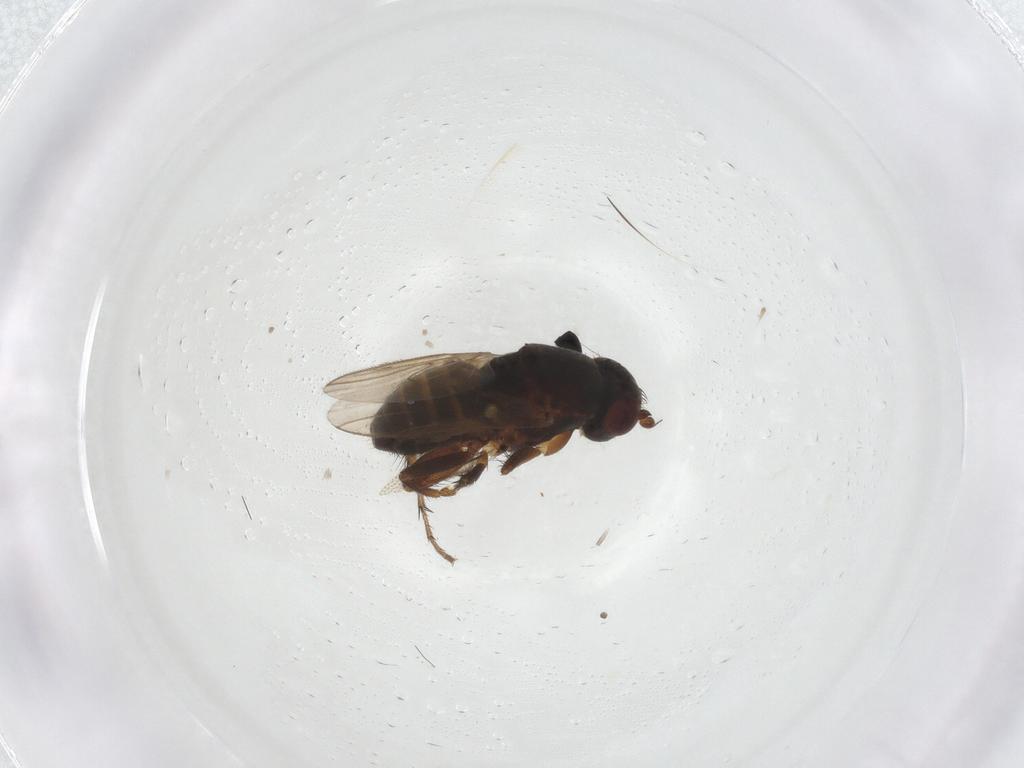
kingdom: Animalia
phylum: Arthropoda
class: Insecta
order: Diptera
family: Sphaeroceridae
